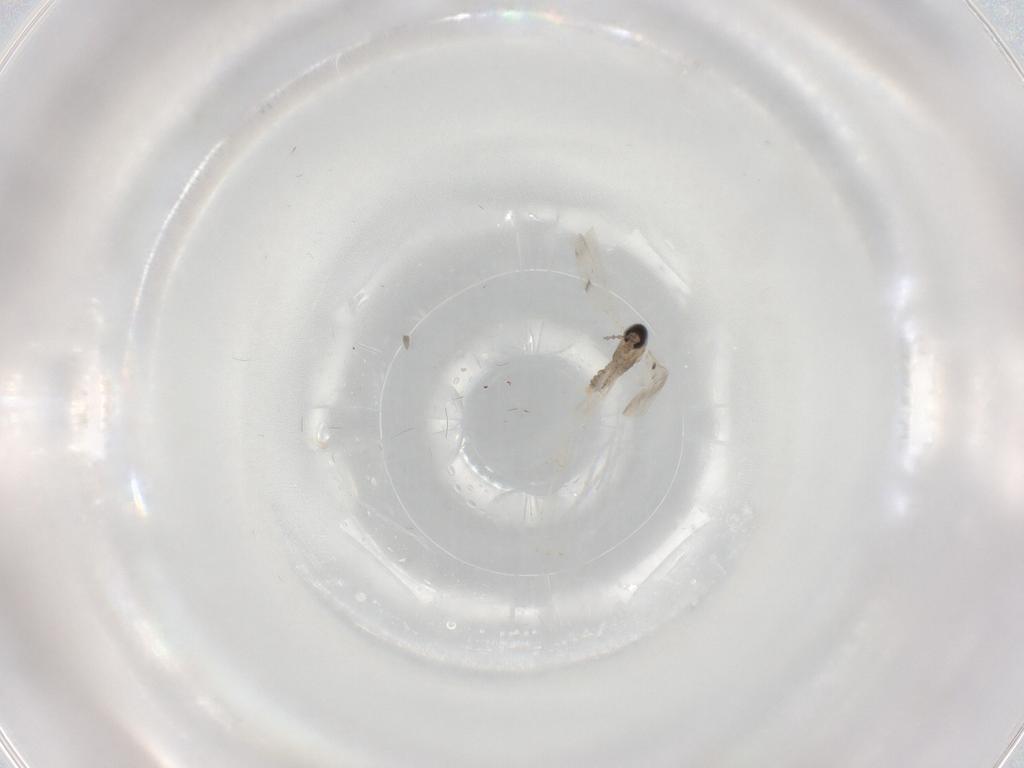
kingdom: Animalia
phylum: Arthropoda
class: Insecta
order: Diptera
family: Cecidomyiidae
